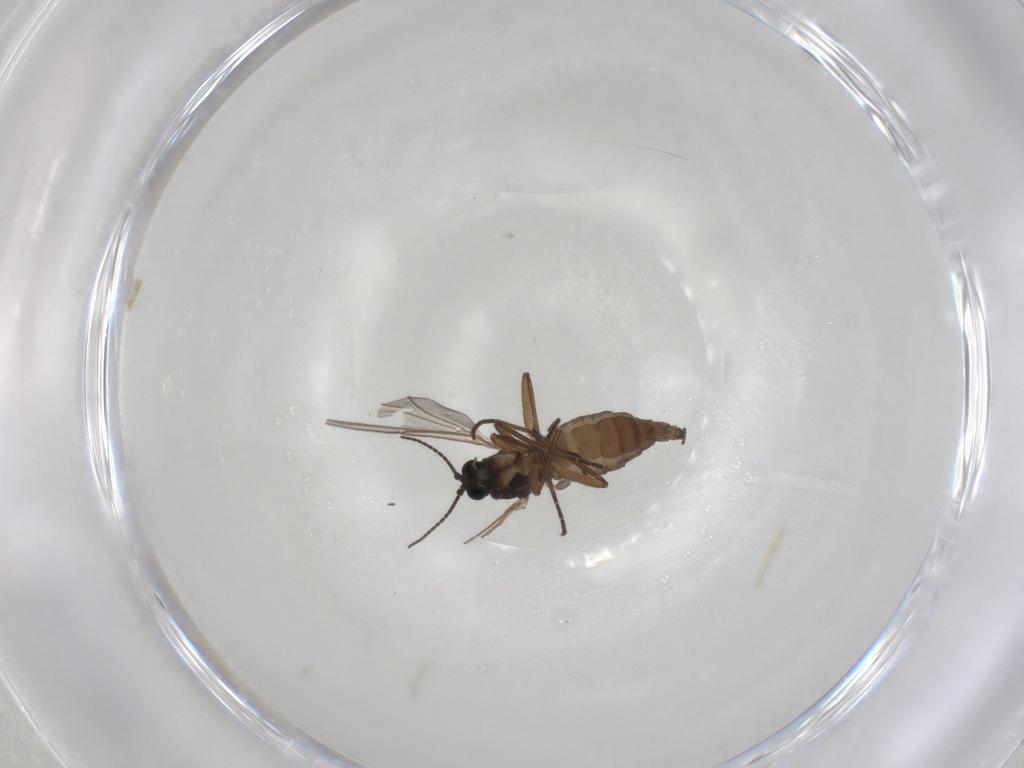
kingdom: Animalia
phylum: Arthropoda
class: Insecta
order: Diptera
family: Sciaridae
